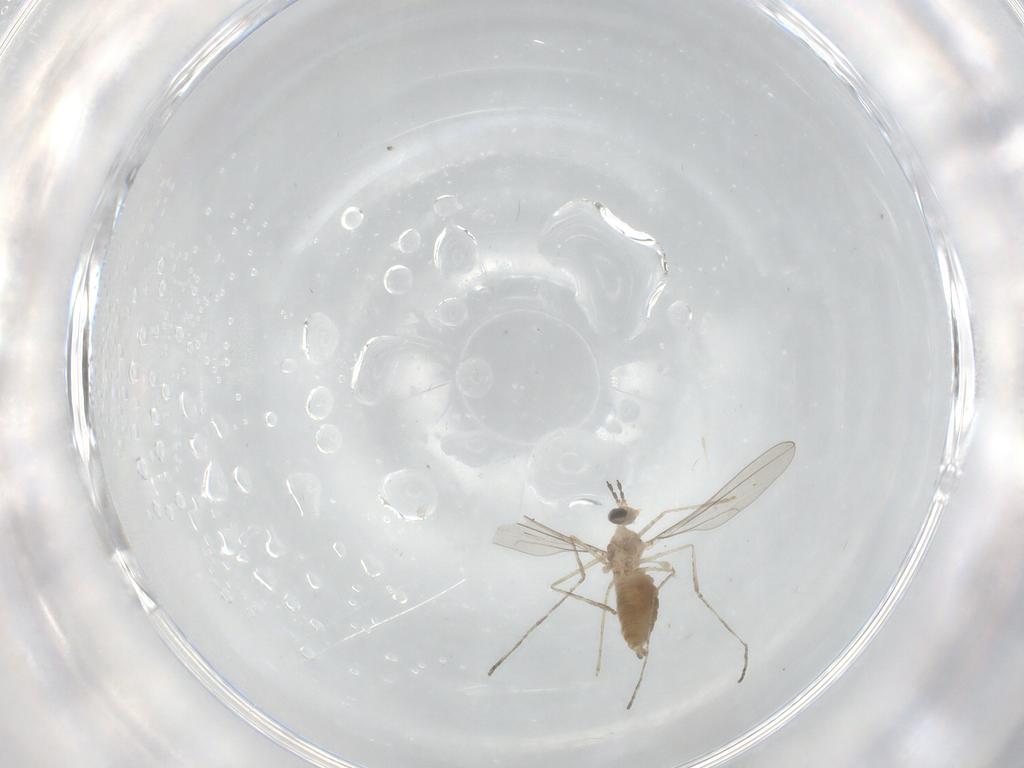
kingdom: Animalia
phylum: Arthropoda
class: Insecta
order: Diptera
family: Cecidomyiidae
